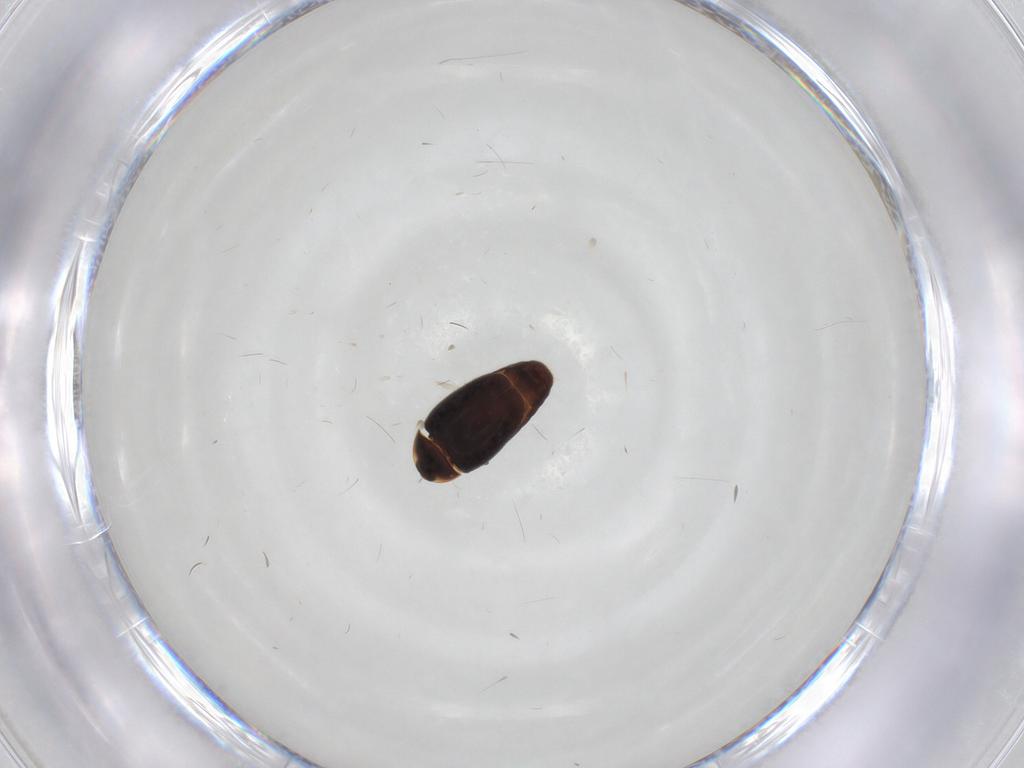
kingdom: Animalia
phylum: Arthropoda
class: Insecta
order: Coleoptera
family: Corylophidae
